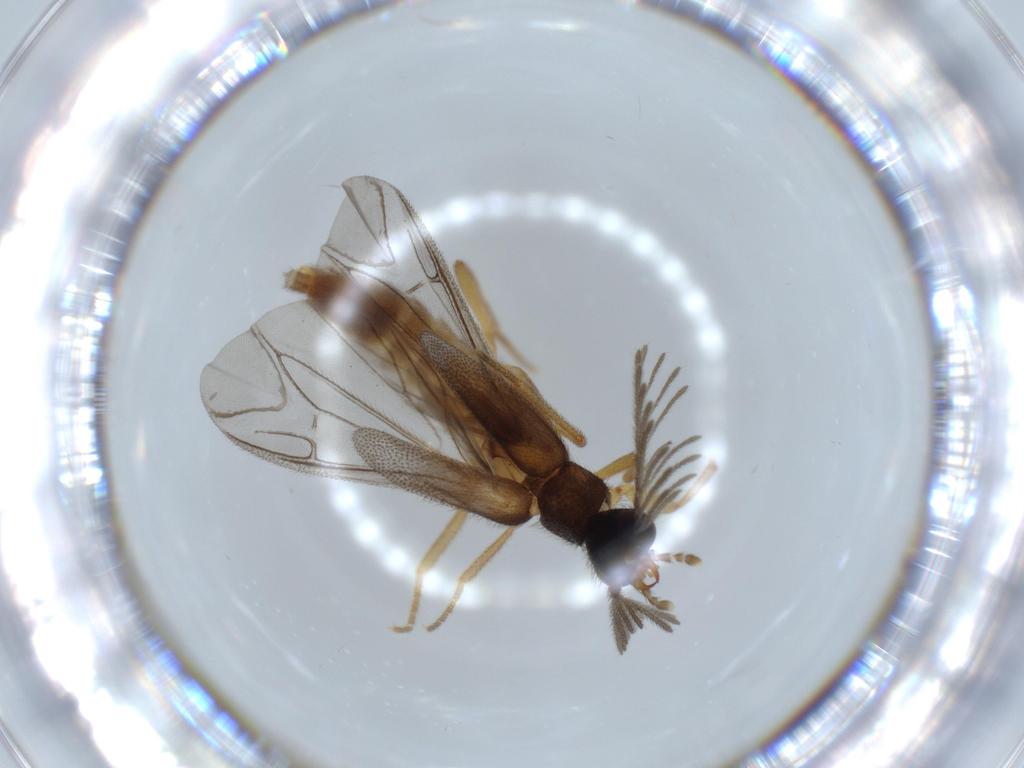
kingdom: Animalia
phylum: Arthropoda
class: Insecta
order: Coleoptera
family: Chrysomelidae
